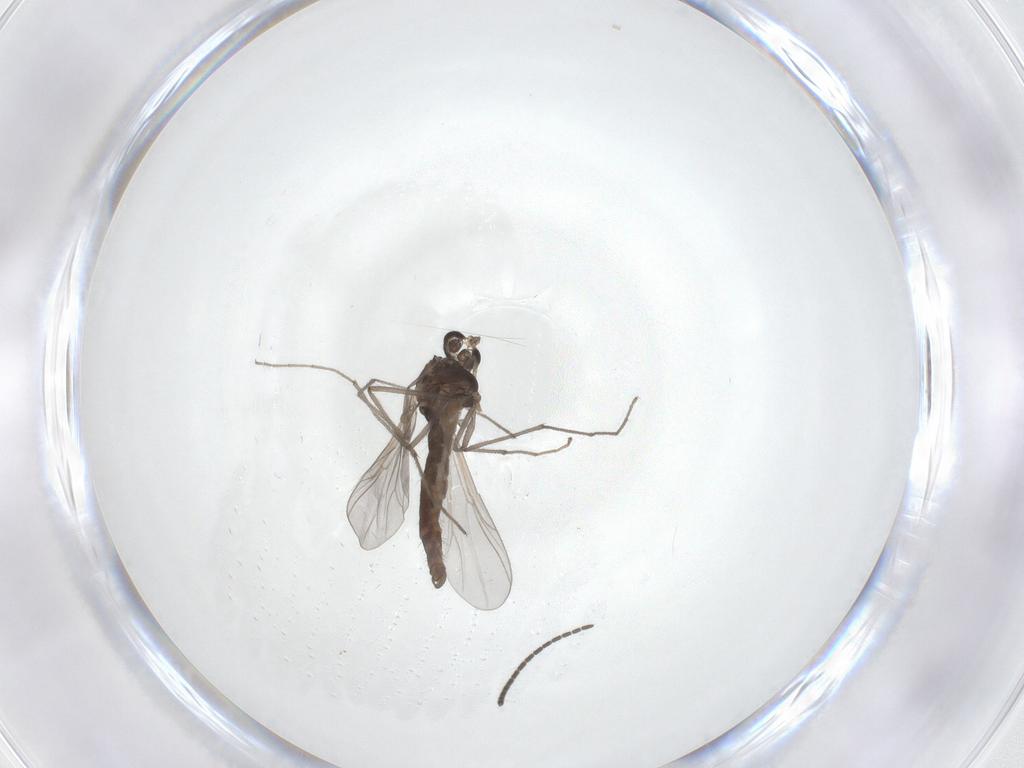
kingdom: Animalia
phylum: Arthropoda
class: Insecta
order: Diptera
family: Chironomidae
